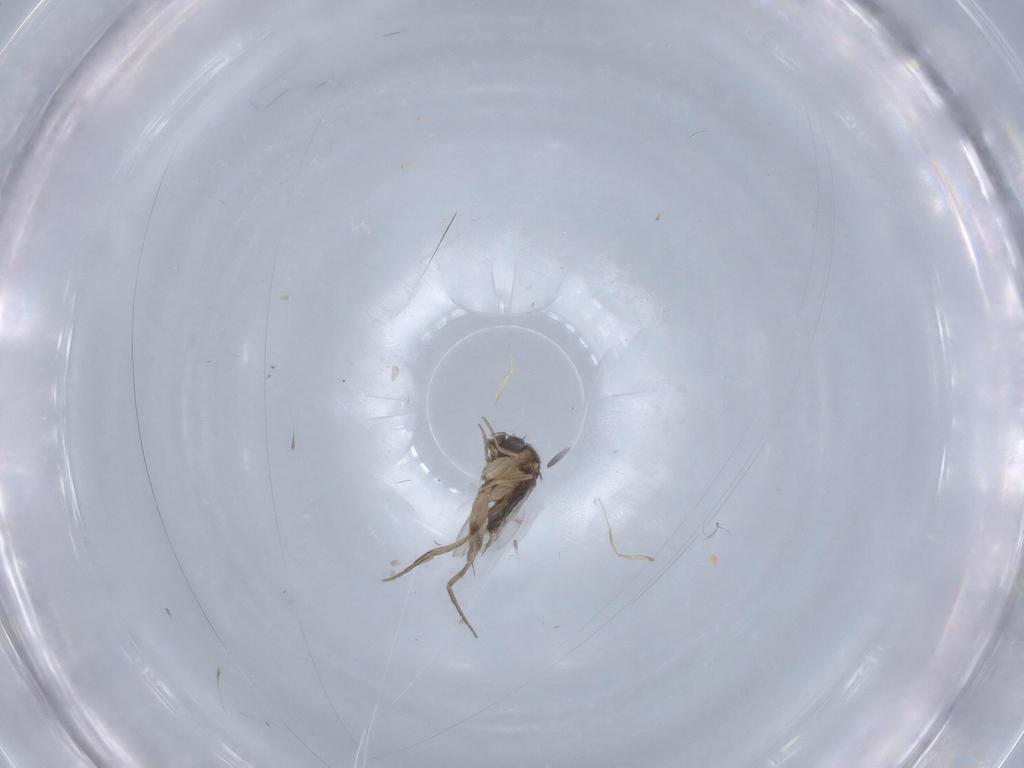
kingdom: Animalia
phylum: Arthropoda
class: Insecta
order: Diptera
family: Phoridae
